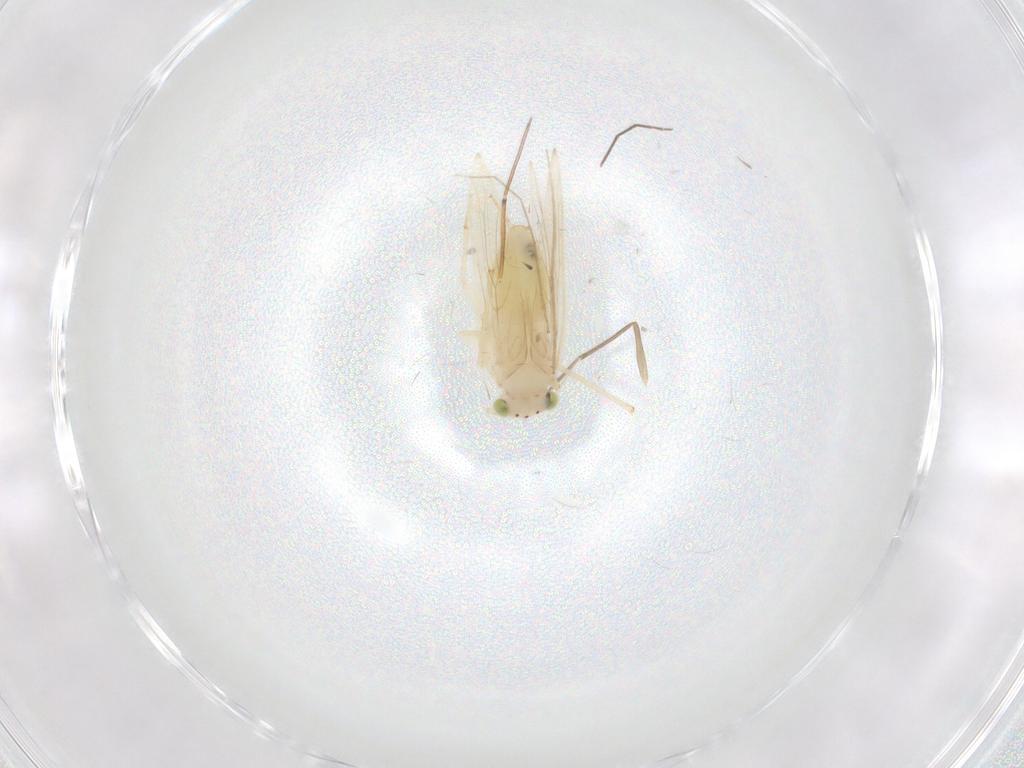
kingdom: Animalia
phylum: Arthropoda
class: Insecta
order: Psocodea
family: Lepidopsocidae
